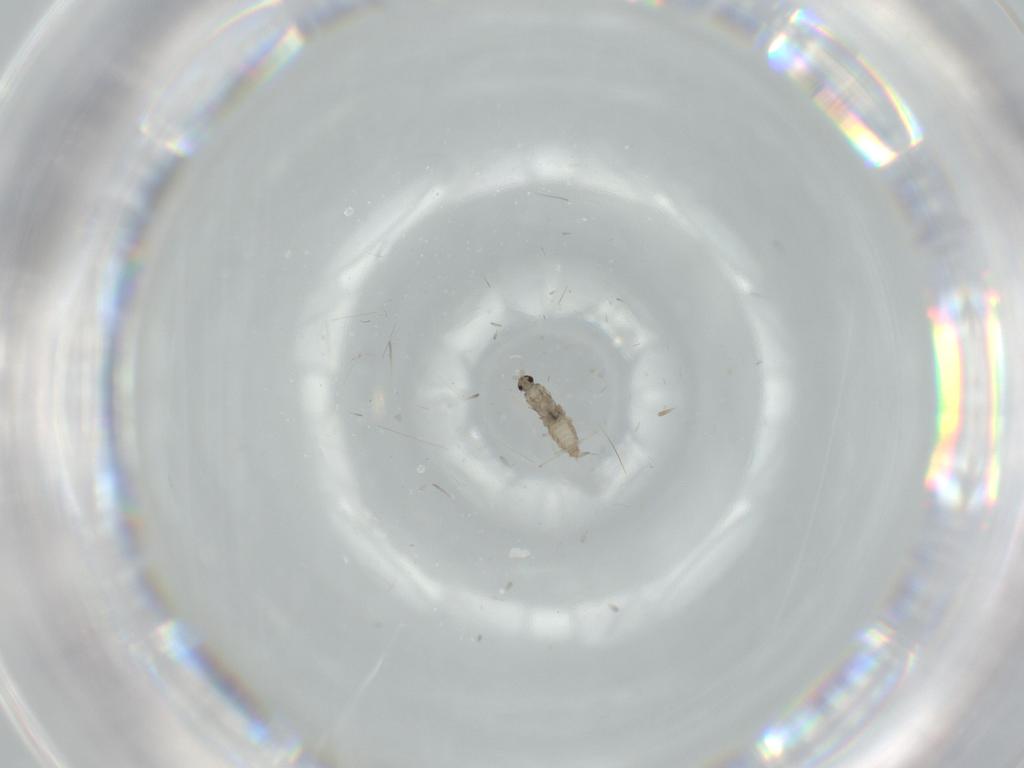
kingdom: Animalia
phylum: Arthropoda
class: Insecta
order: Diptera
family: Cecidomyiidae
